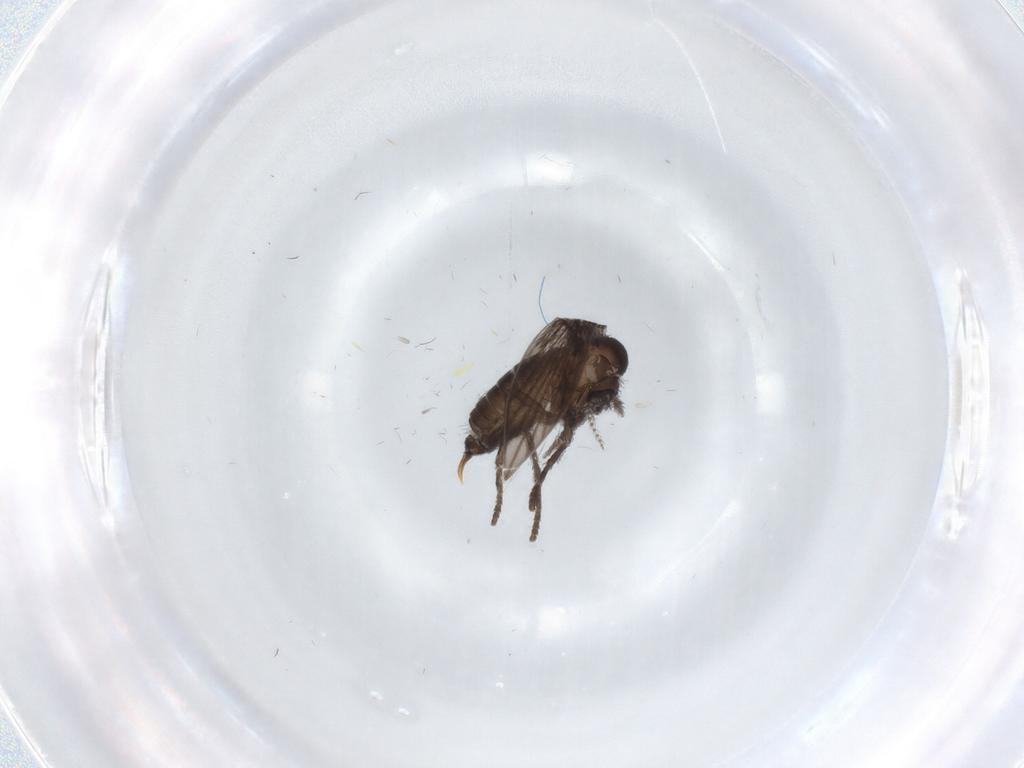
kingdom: Animalia
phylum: Arthropoda
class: Insecta
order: Diptera
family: Psychodidae
